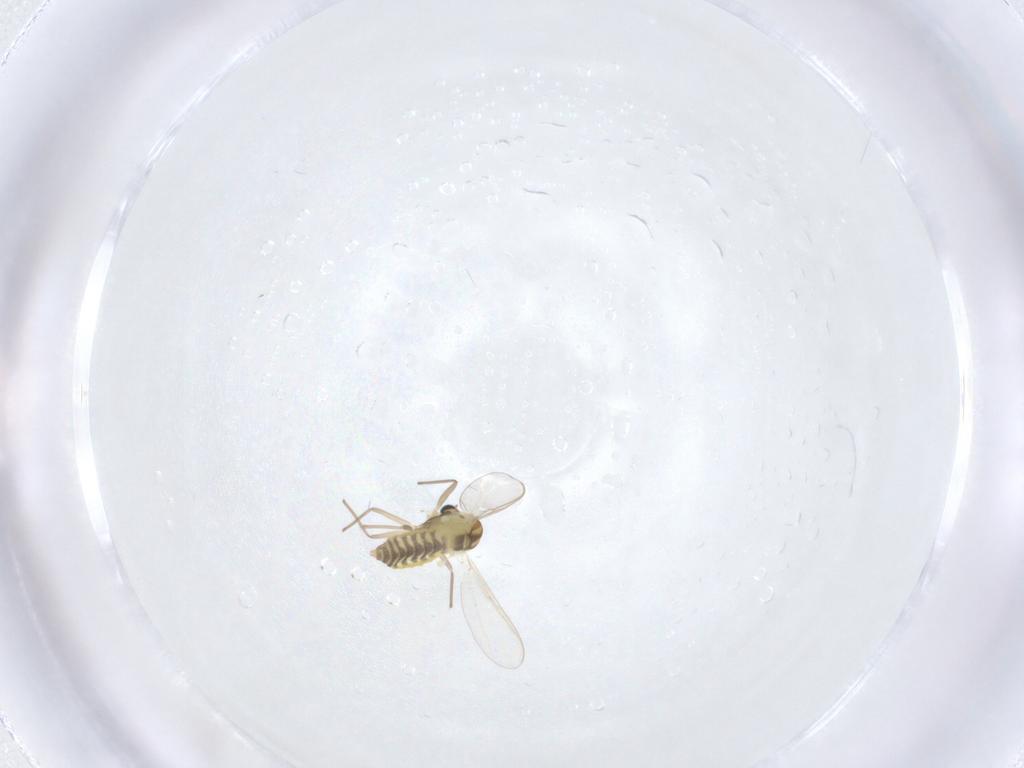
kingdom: Animalia
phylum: Arthropoda
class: Insecta
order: Diptera
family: Chironomidae
